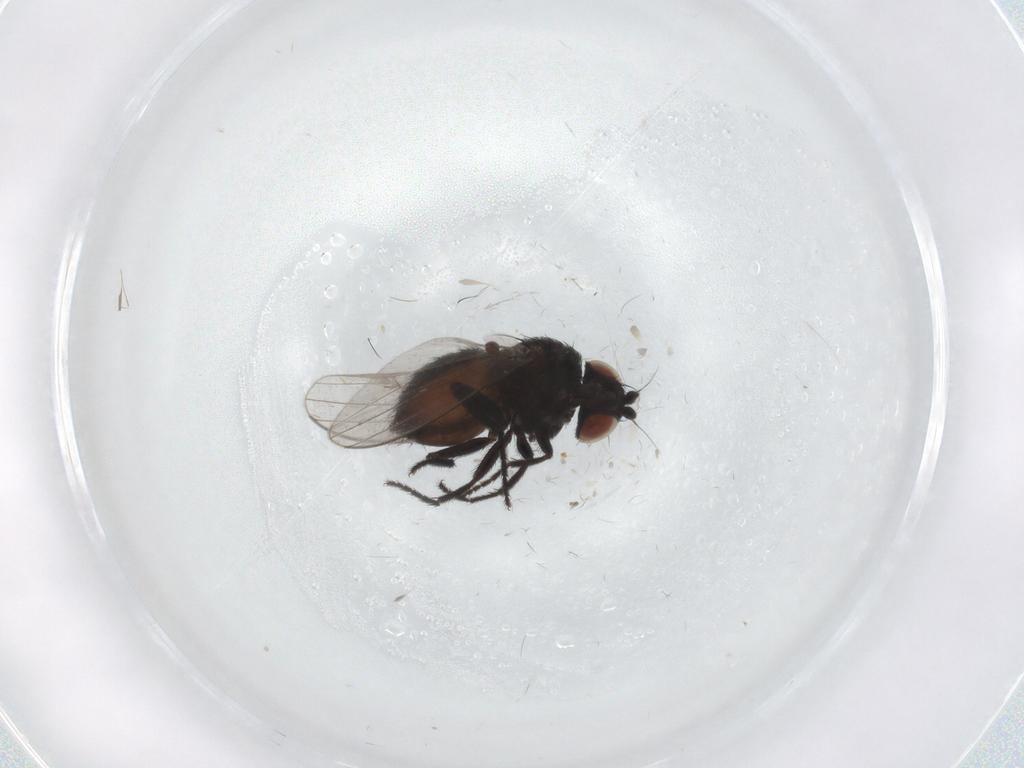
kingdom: Animalia
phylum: Arthropoda
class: Insecta
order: Diptera
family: Milichiidae
